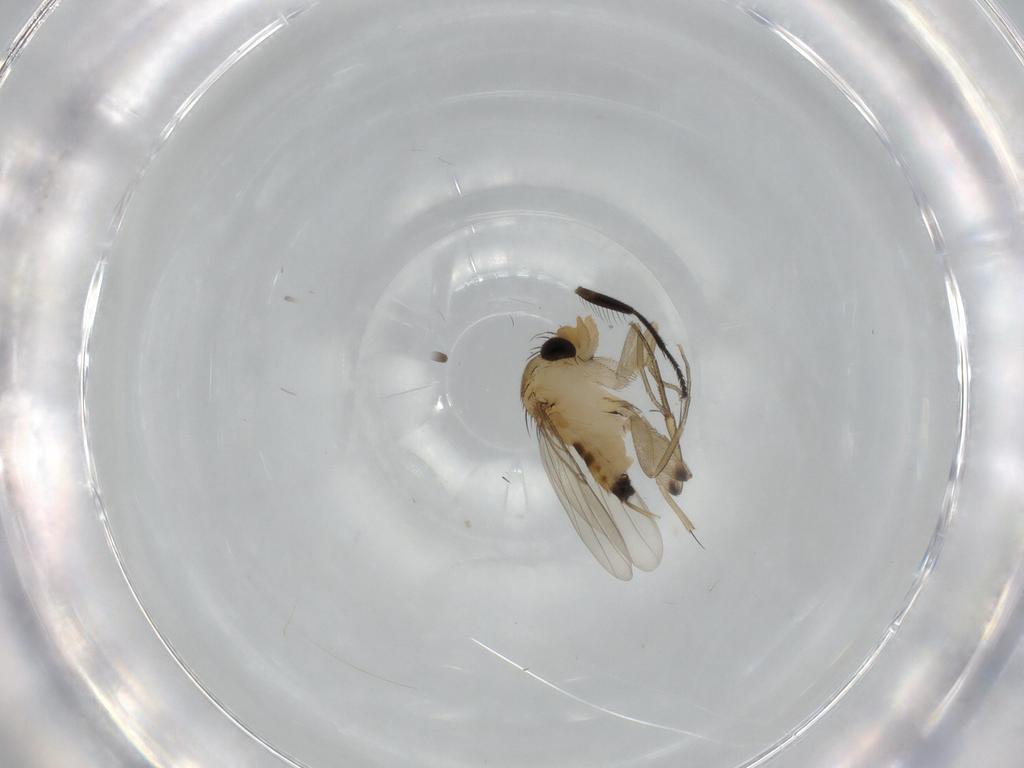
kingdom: Animalia
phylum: Arthropoda
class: Insecta
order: Diptera
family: Phoridae
